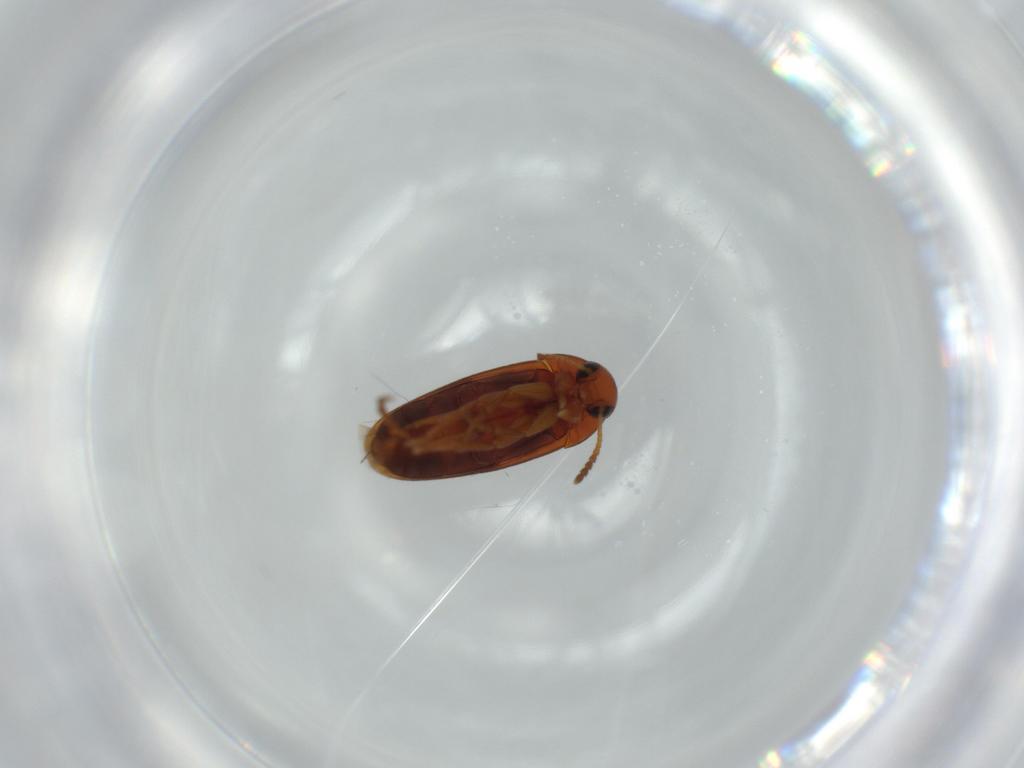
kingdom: Animalia
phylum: Arthropoda
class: Insecta
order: Coleoptera
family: Scraptiidae
